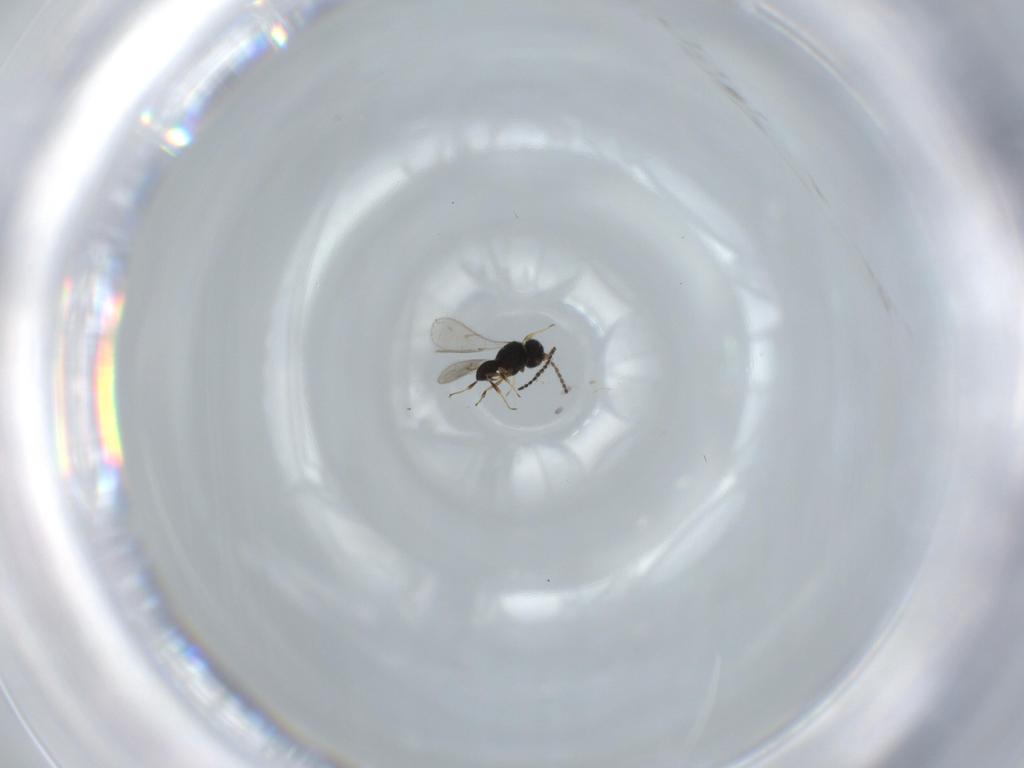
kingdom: Animalia
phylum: Arthropoda
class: Insecta
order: Hymenoptera
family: Scelionidae
